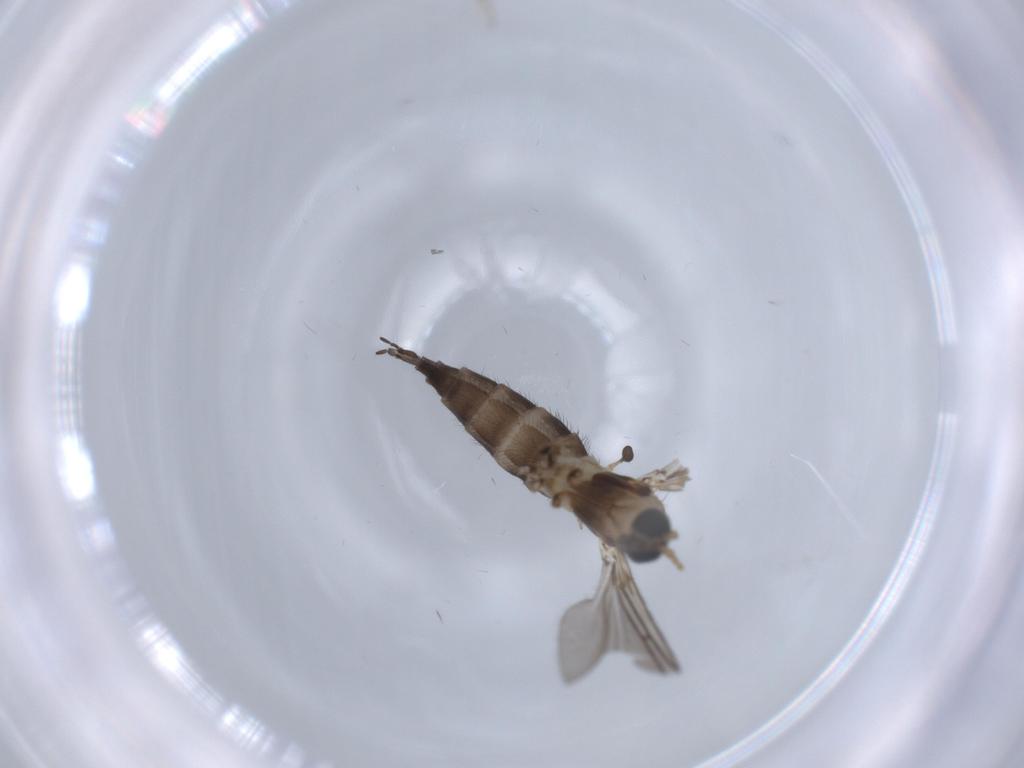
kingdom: Animalia
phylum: Arthropoda
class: Insecta
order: Diptera
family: Sciaridae
